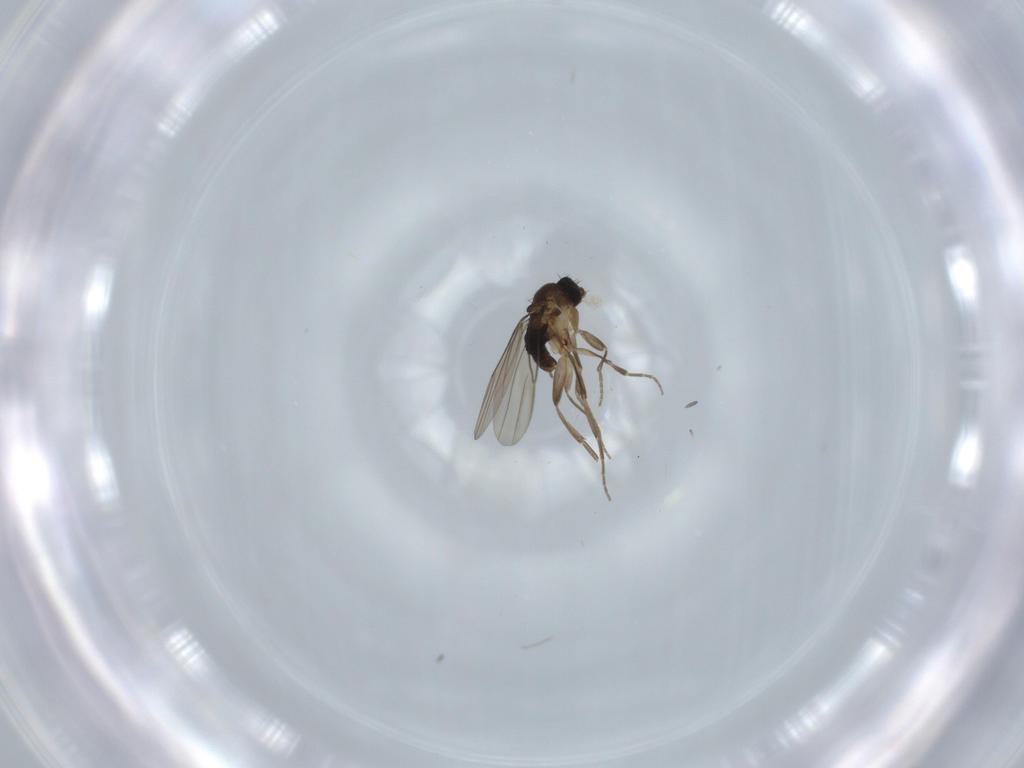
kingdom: Animalia
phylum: Arthropoda
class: Insecta
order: Diptera
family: Phoridae
